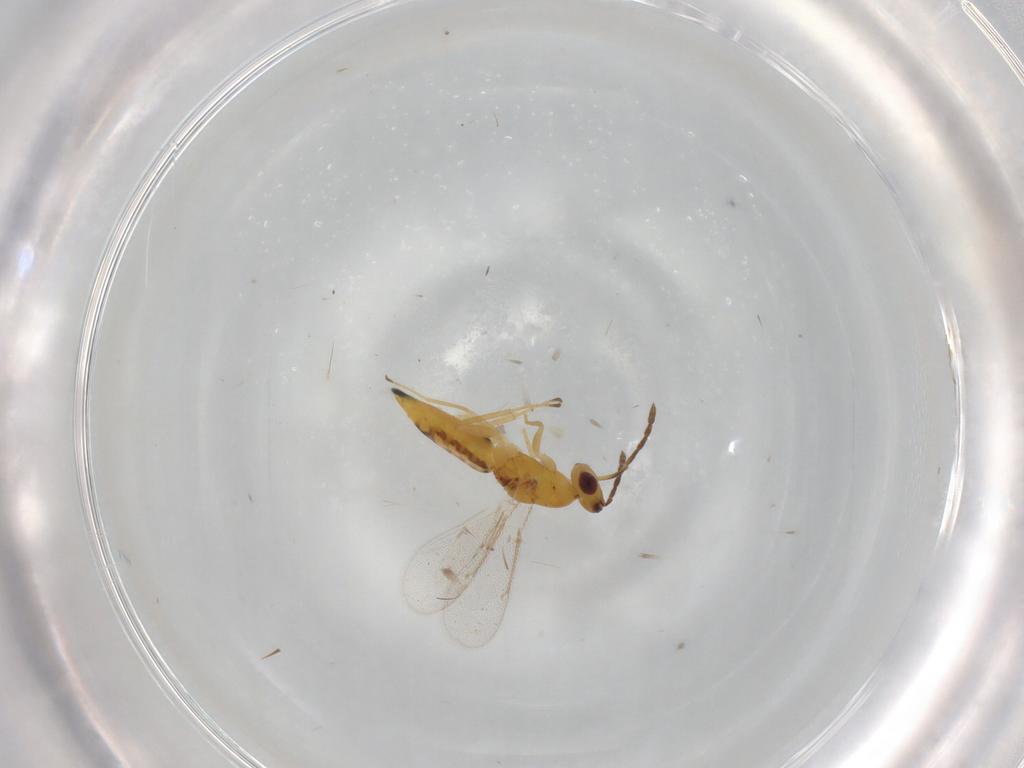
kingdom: Animalia
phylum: Arthropoda
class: Insecta
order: Hymenoptera
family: Eulophidae
